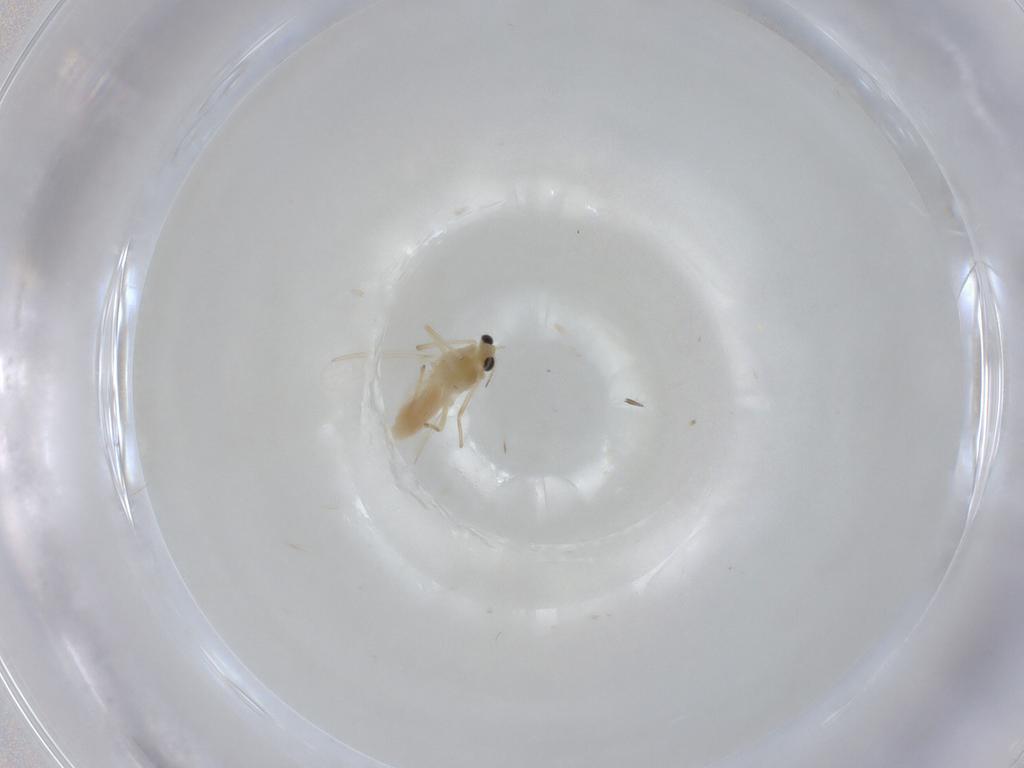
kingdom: Animalia
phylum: Arthropoda
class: Insecta
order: Diptera
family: Chironomidae
